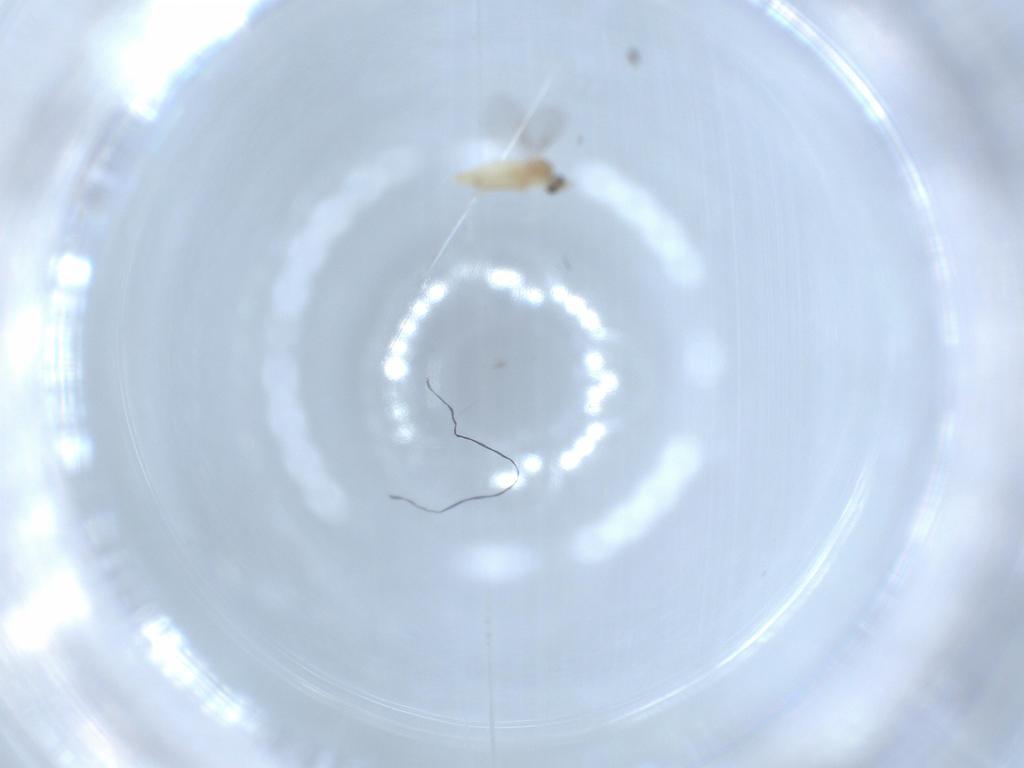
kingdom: Animalia
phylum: Arthropoda
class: Insecta
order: Diptera
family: Cecidomyiidae
